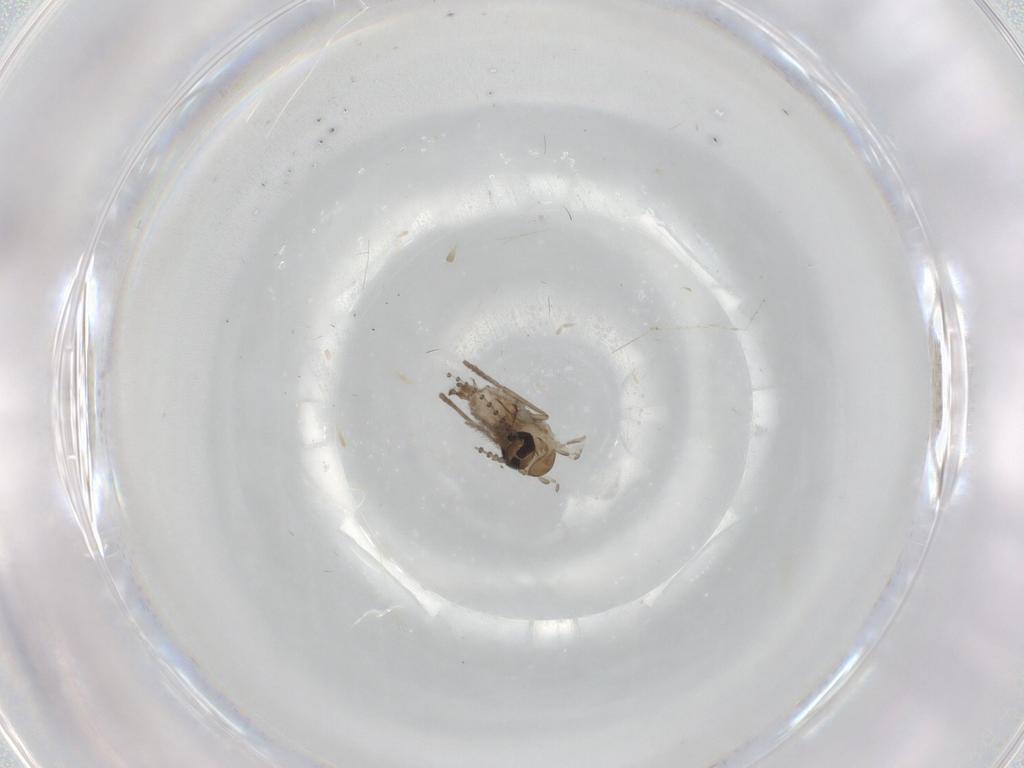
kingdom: Animalia
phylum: Arthropoda
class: Insecta
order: Diptera
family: Psychodidae
